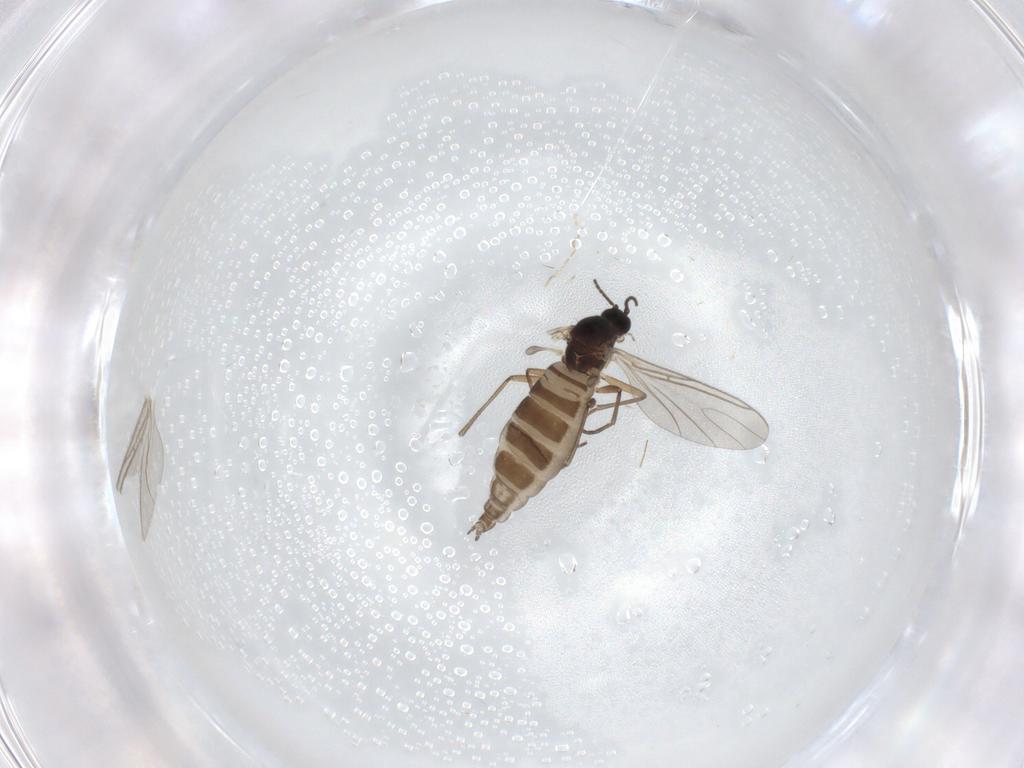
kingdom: Animalia
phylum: Arthropoda
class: Insecta
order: Diptera
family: Sciaridae
